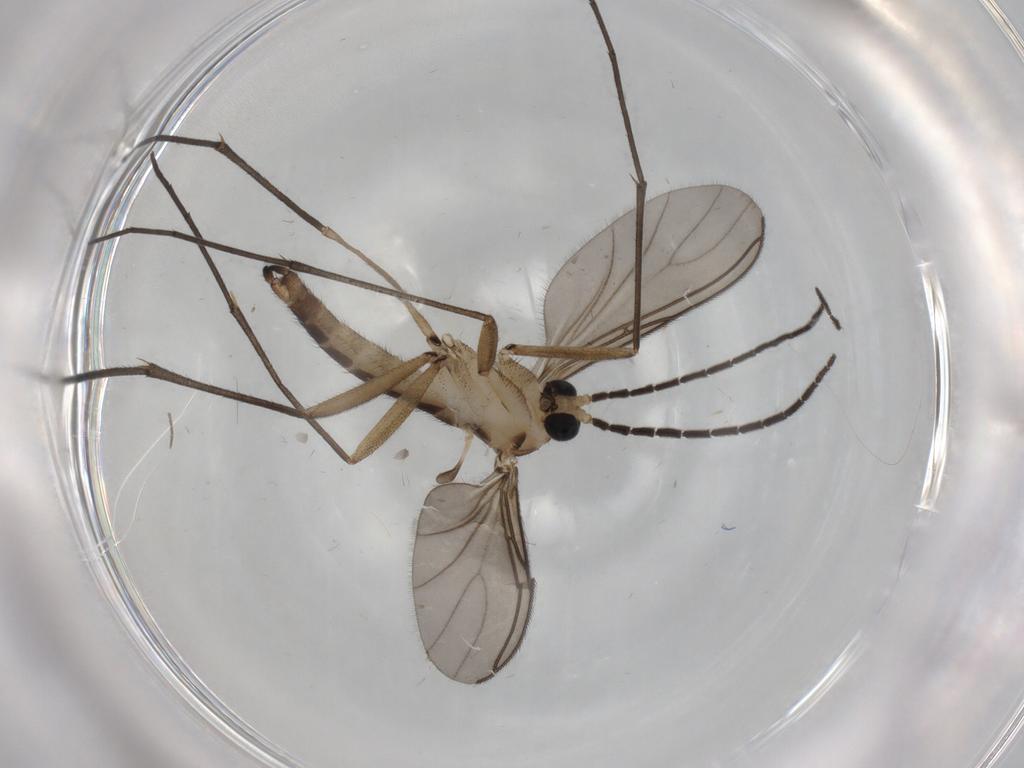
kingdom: Animalia
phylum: Arthropoda
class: Insecta
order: Diptera
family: Sciaridae
